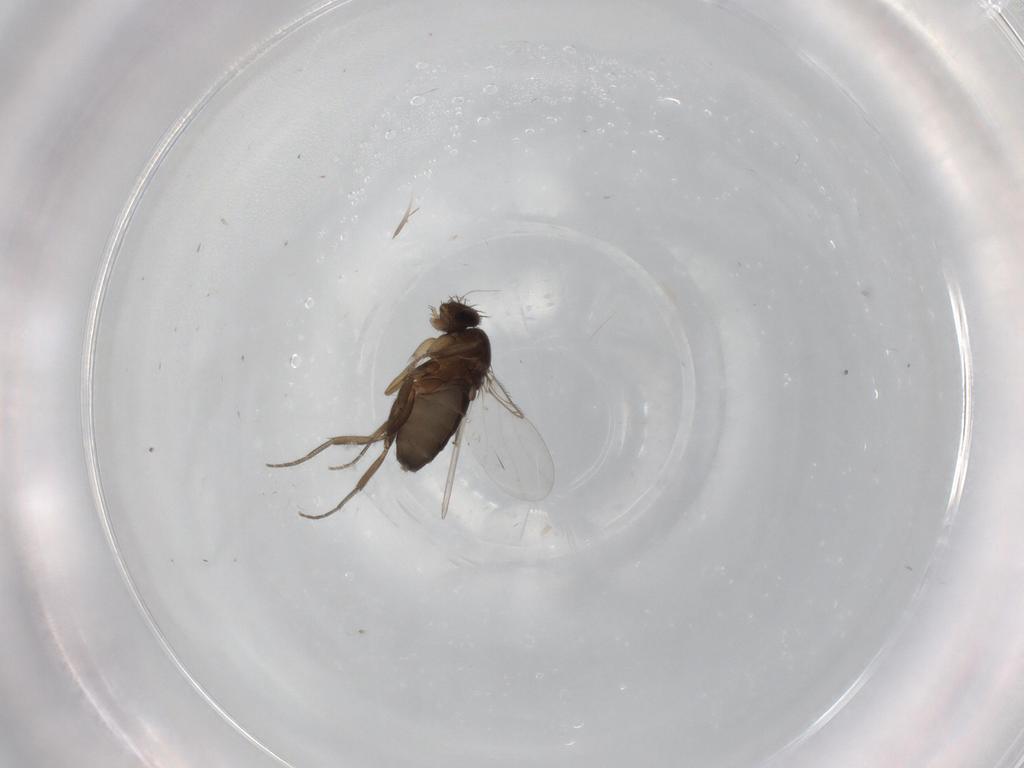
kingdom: Animalia
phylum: Arthropoda
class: Insecta
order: Diptera
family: Phoridae
